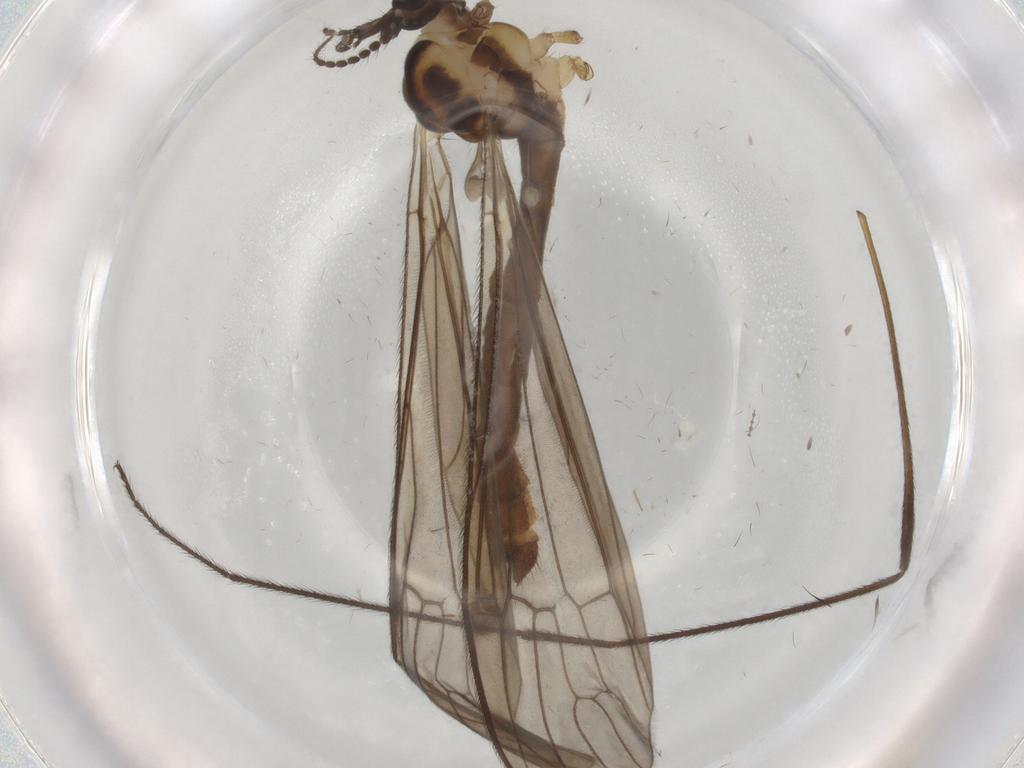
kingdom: Animalia
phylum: Arthropoda
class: Insecta
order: Diptera
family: Sciaridae
